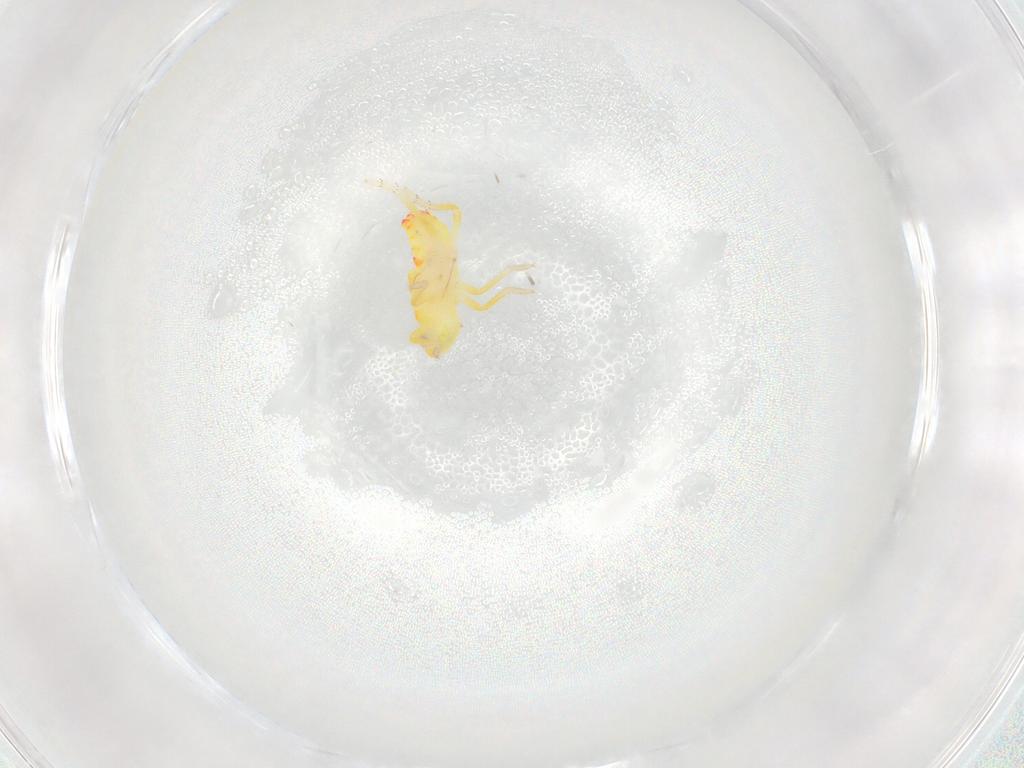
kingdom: Animalia
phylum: Arthropoda
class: Insecta
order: Hemiptera
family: Tropiduchidae
